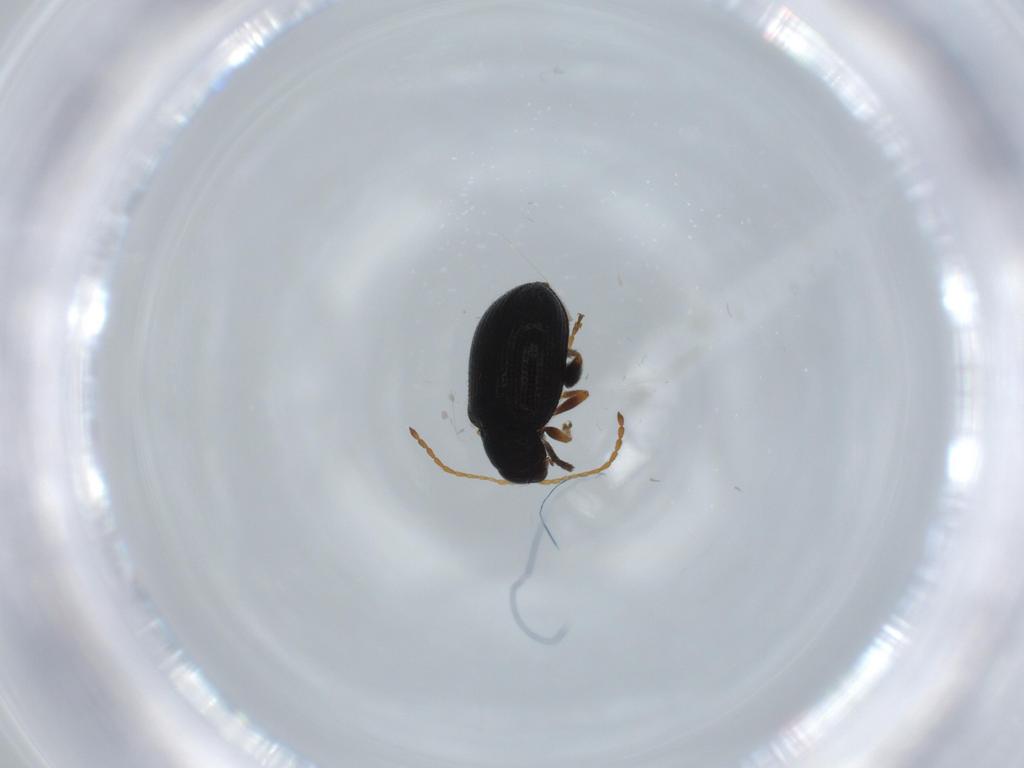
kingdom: Animalia
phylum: Arthropoda
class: Insecta
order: Coleoptera
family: Chrysomelidae
